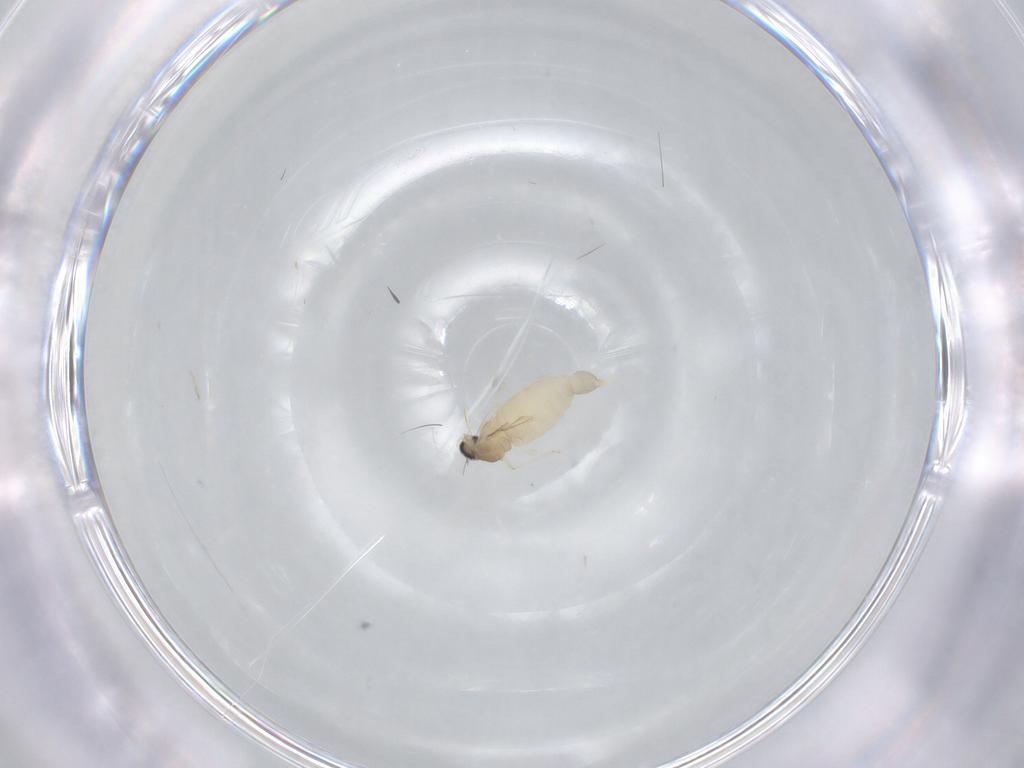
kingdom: Animalia
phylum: Arthropoda
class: Insecta
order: Diptera
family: Cecidomyiidae
